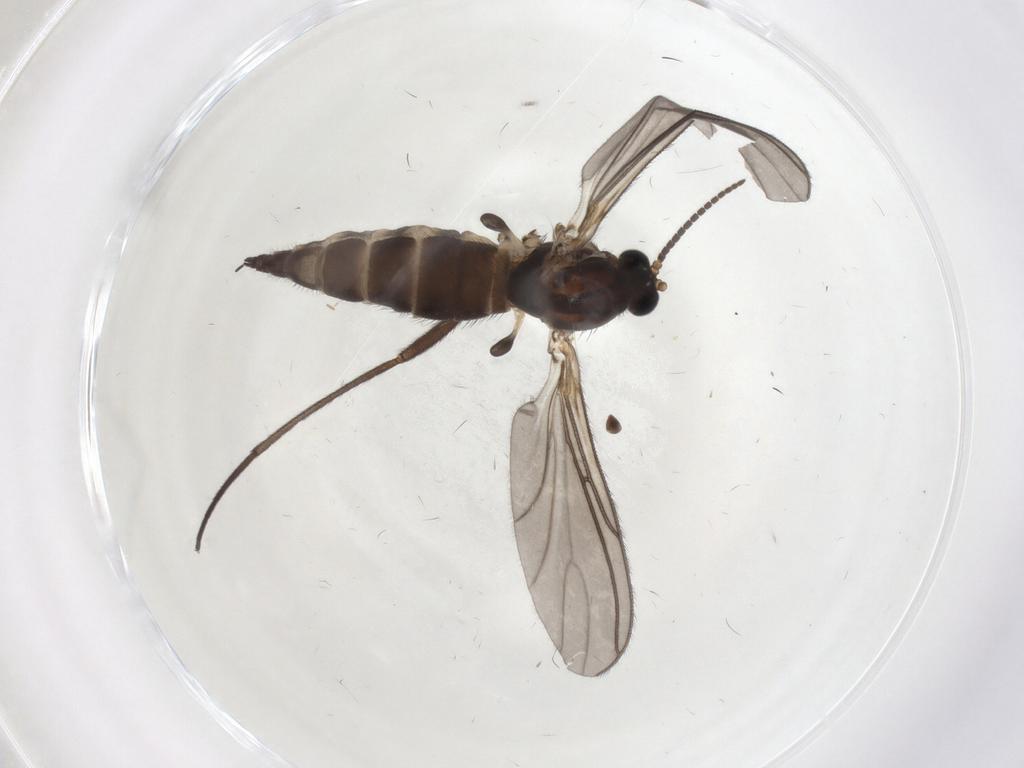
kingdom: Animalia
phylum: Arthropoda
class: Insecta
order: Diptera
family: Sciaridae
